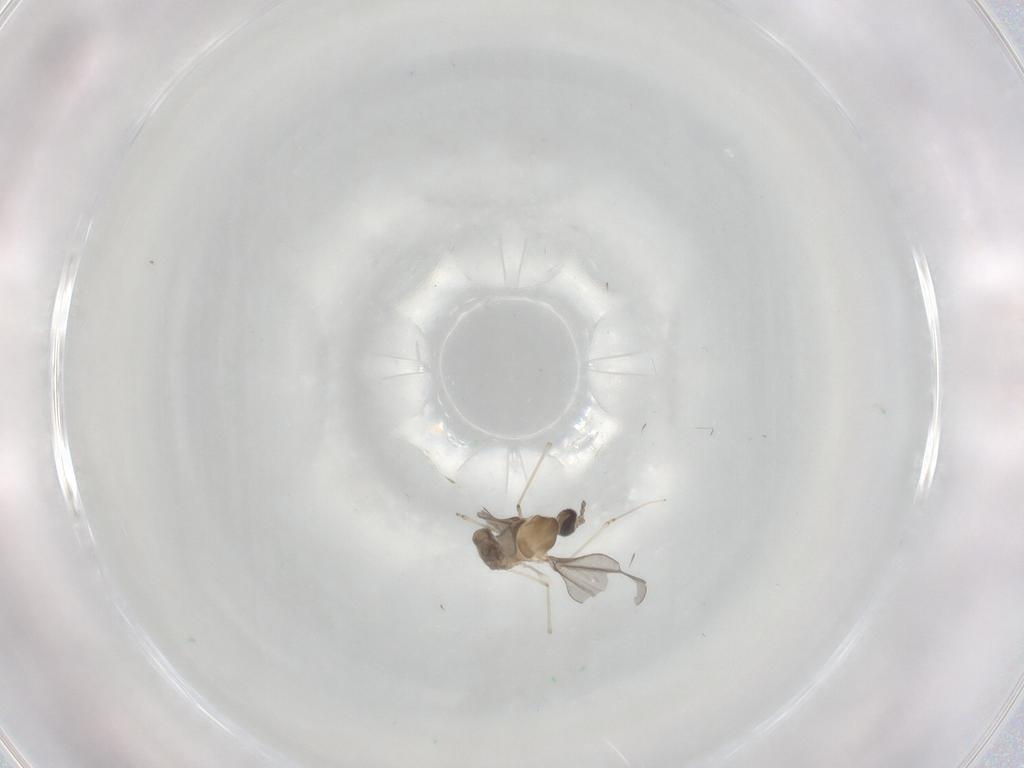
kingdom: Animalia
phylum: Arthropoda
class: Insecta
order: Diptera
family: Cecidomyiidae
